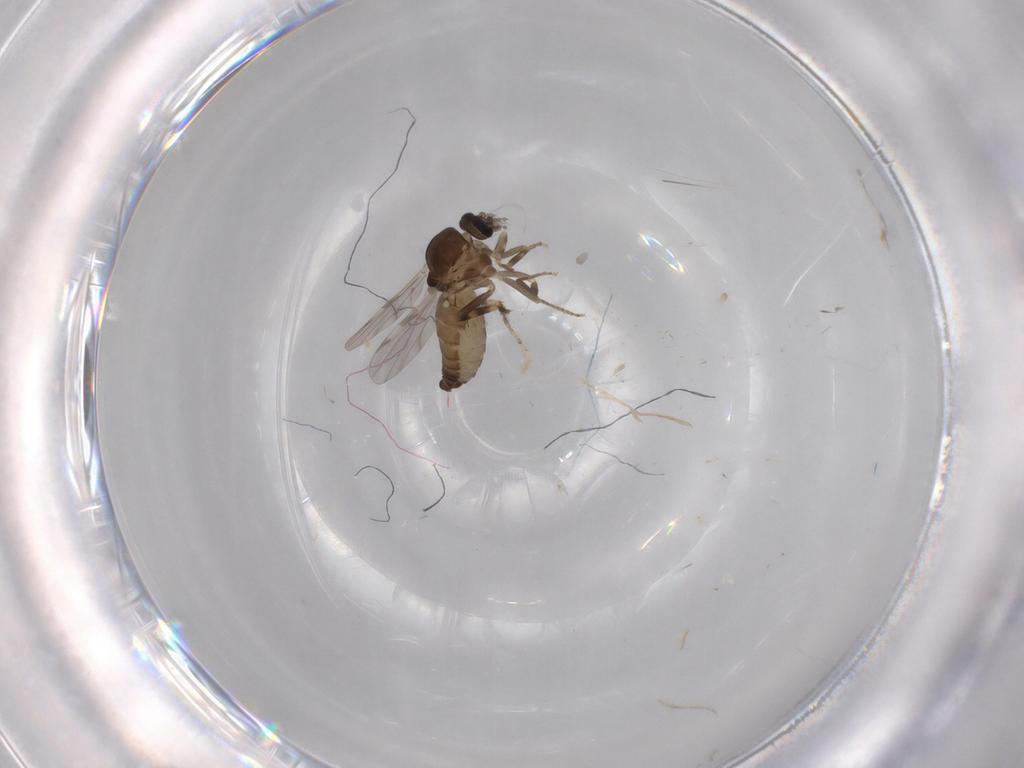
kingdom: Animalia
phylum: Arthropoda
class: Insecta
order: Diptera
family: Ceratopogonidae
